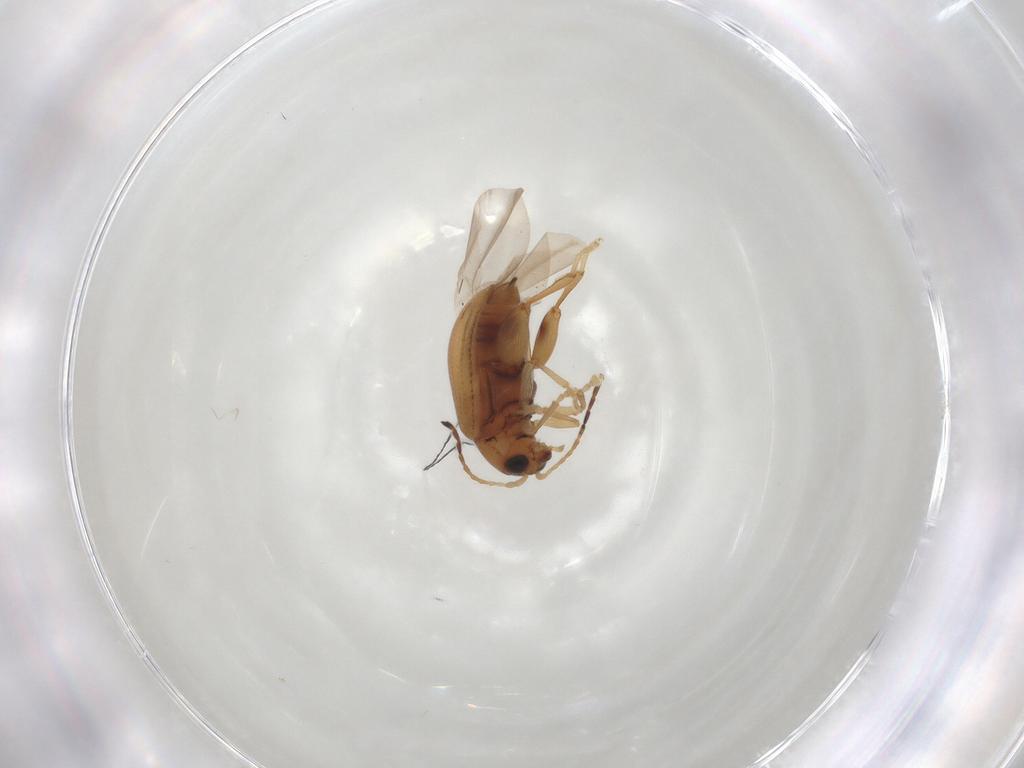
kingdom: Animalia
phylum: Arthropoda
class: Insecta
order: Coleoptera
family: Chrysomelidae
